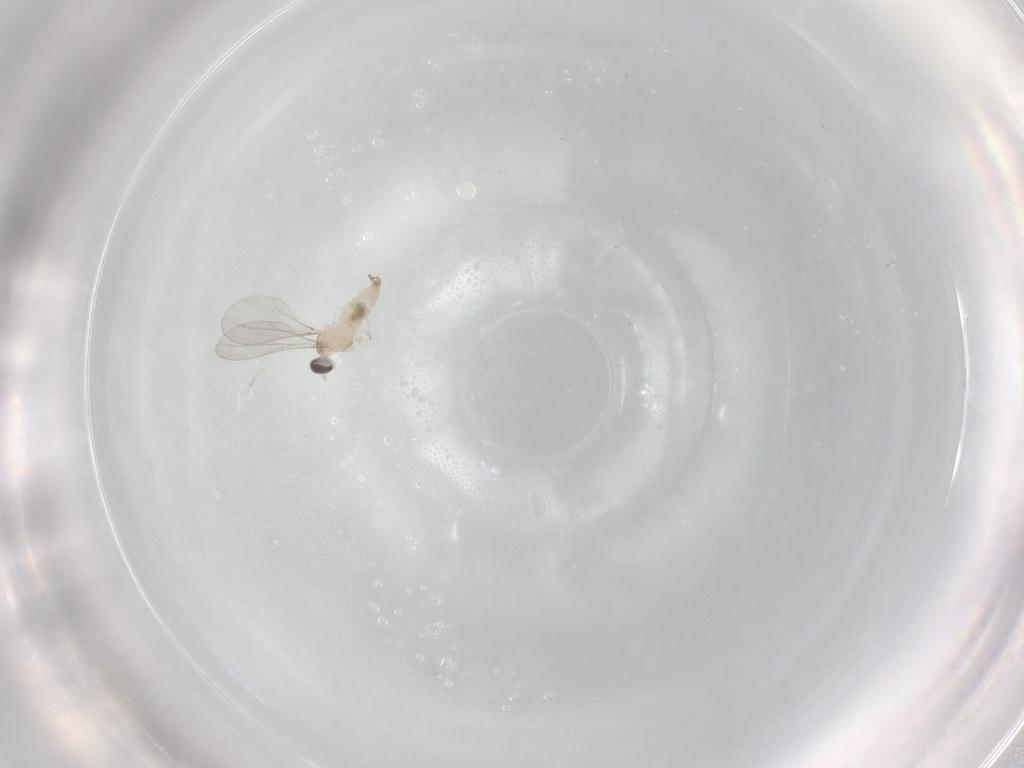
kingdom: Animalia
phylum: Arthropoda
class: Insecta
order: Diptera
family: Cecidomyiidae
